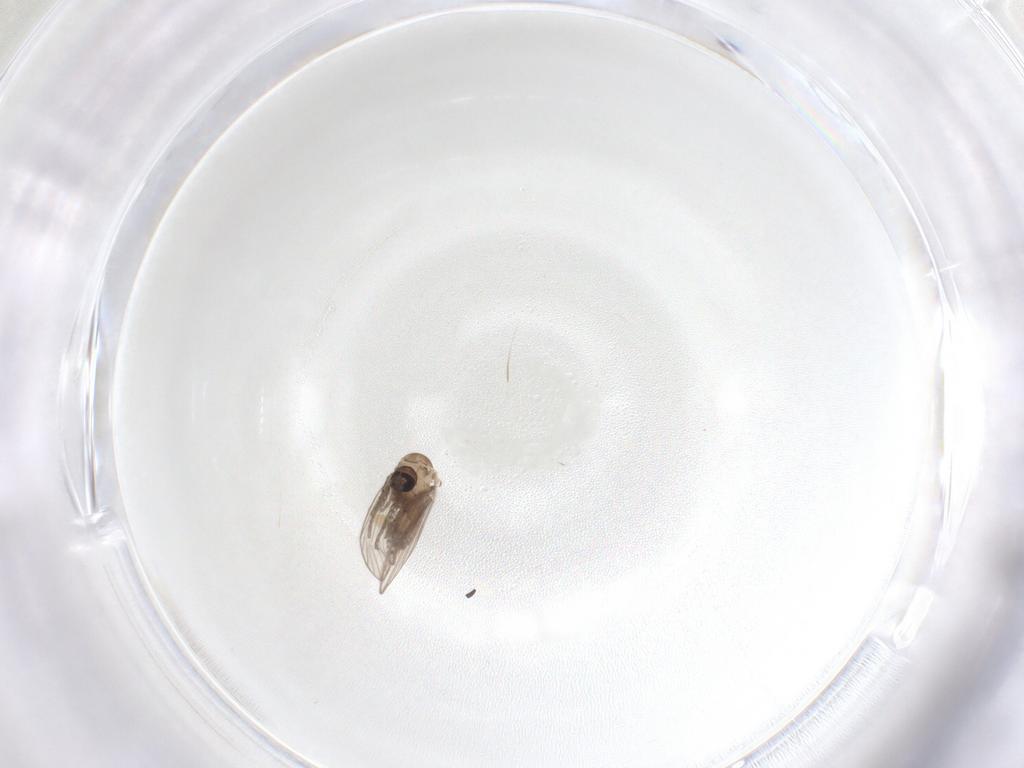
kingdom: Animalia
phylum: Arthropoda
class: Insecta
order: Diptera
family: Psychodidae
